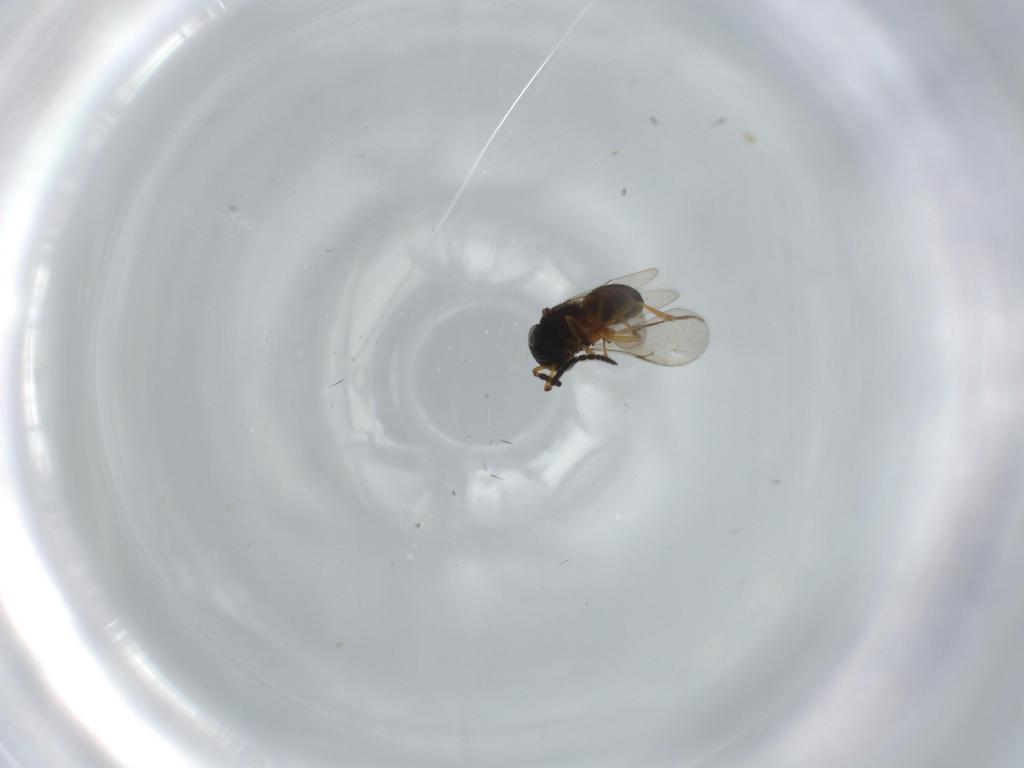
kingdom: Animalia
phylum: Arthropoda
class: Insecta
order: Coleoptera
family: Curculionidae
